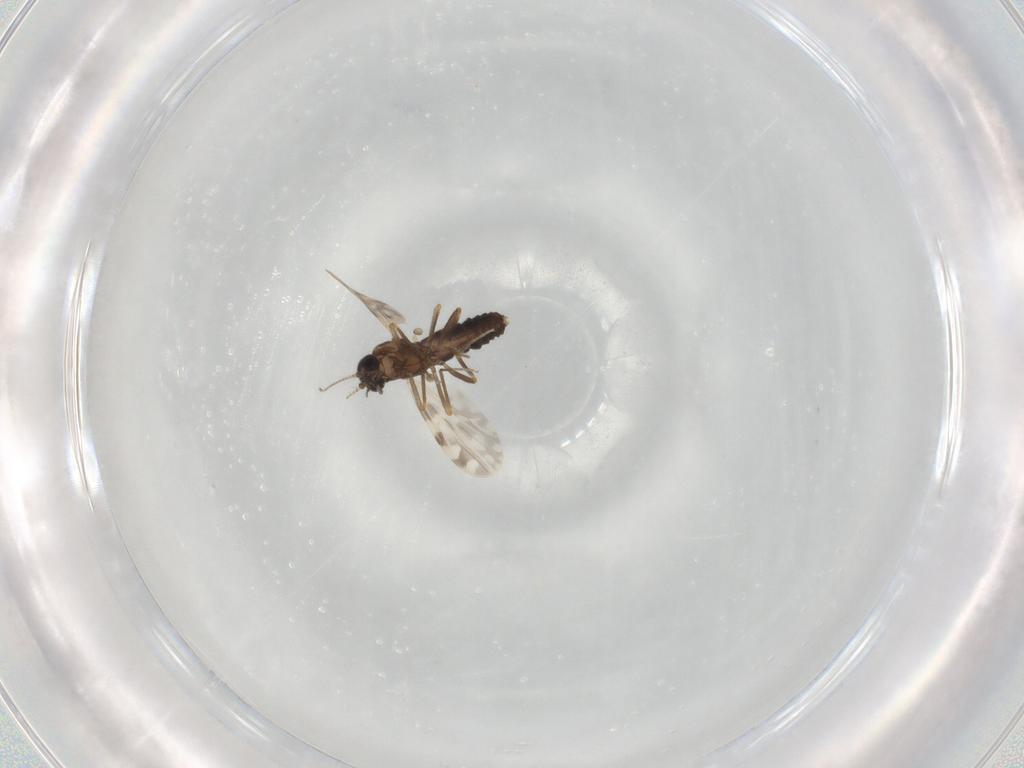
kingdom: Animalia
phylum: Arthropoda
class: Insecta
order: Diptera
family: Ceratopogonidae
